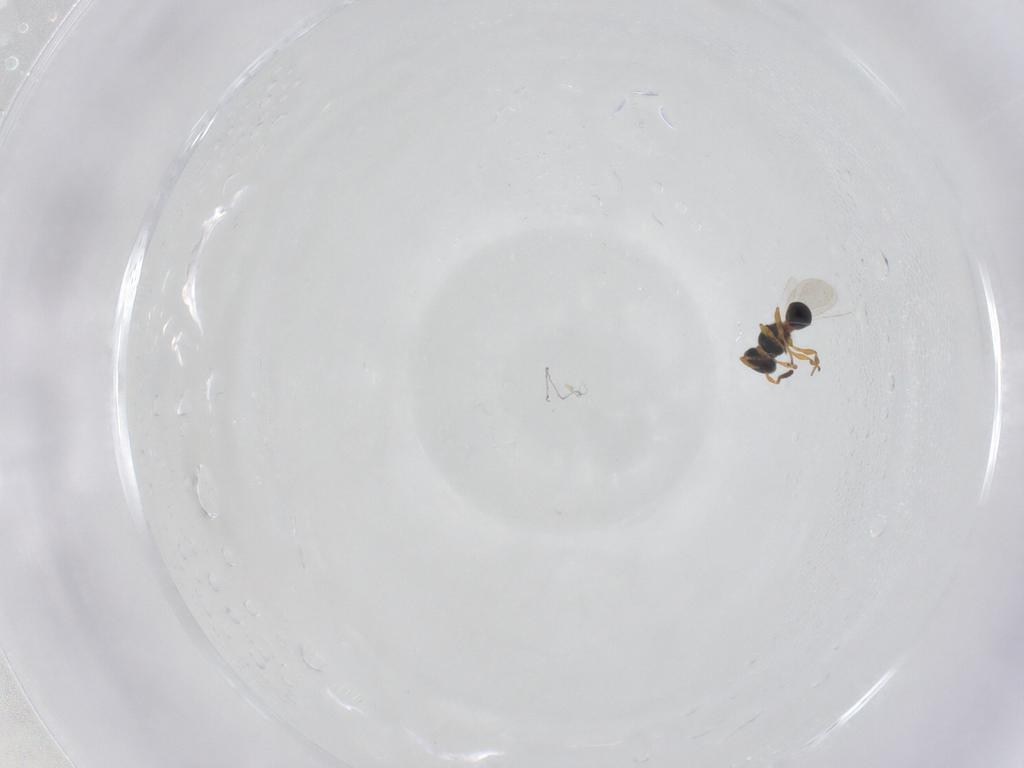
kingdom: Animalia
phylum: Arthropoda
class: Insecta
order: Hymenoptera
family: Platygastridae
